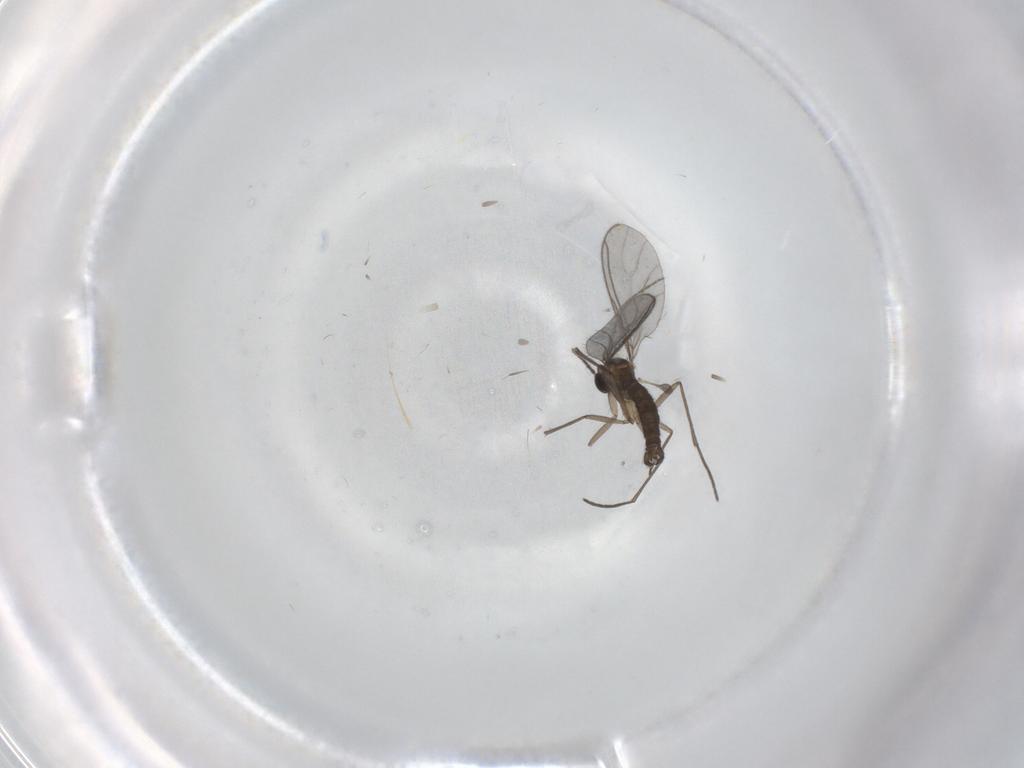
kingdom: Animalia
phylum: Arthropoda
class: Insecta
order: Diptera
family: Sciaridae
